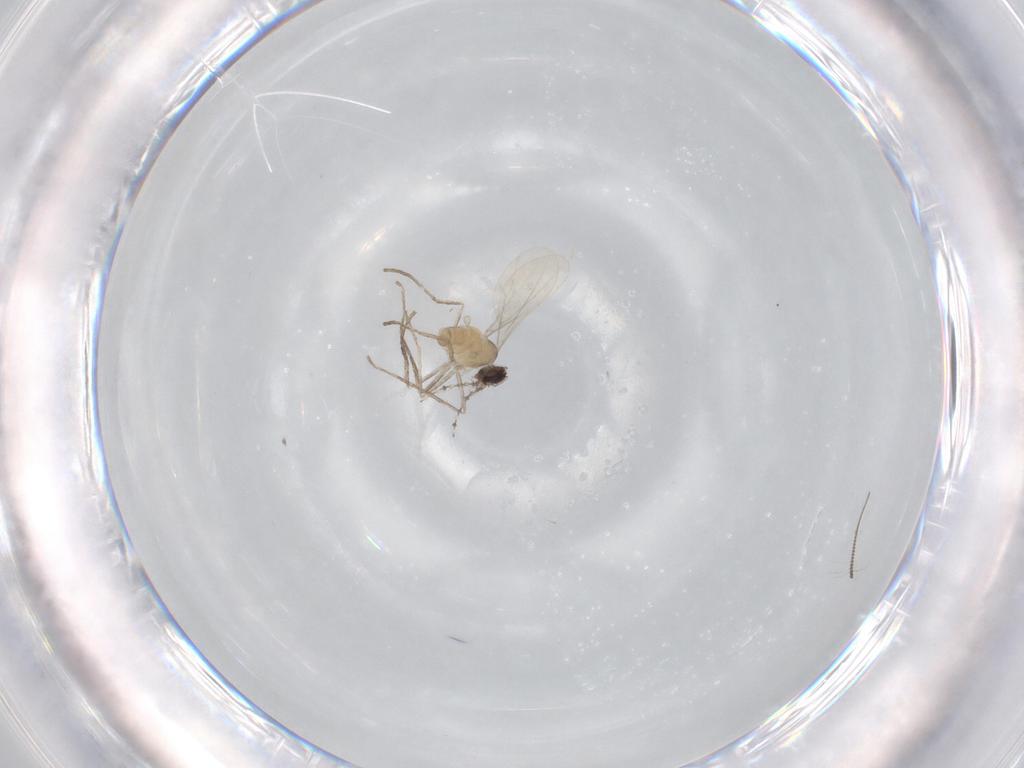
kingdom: Animalia
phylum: Arthropoda
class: Insecta
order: Diptera
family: Cecidomyiidae
